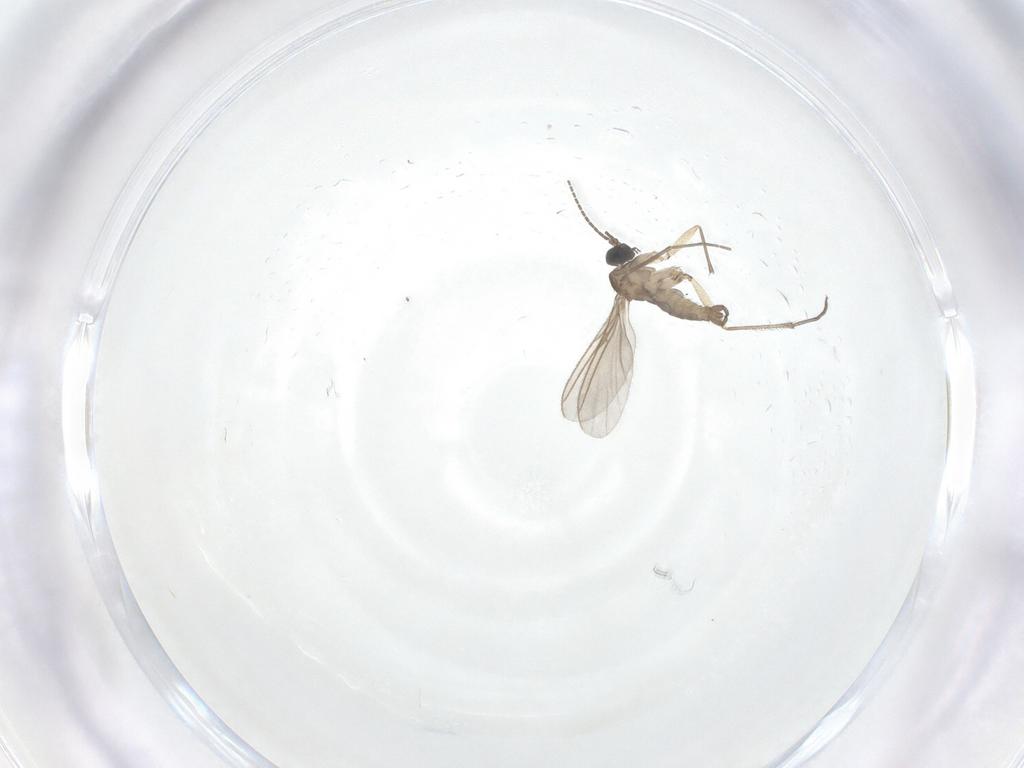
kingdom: Animalia
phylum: Arthropoda
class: Insecta
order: Diptera
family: Sciaridae
